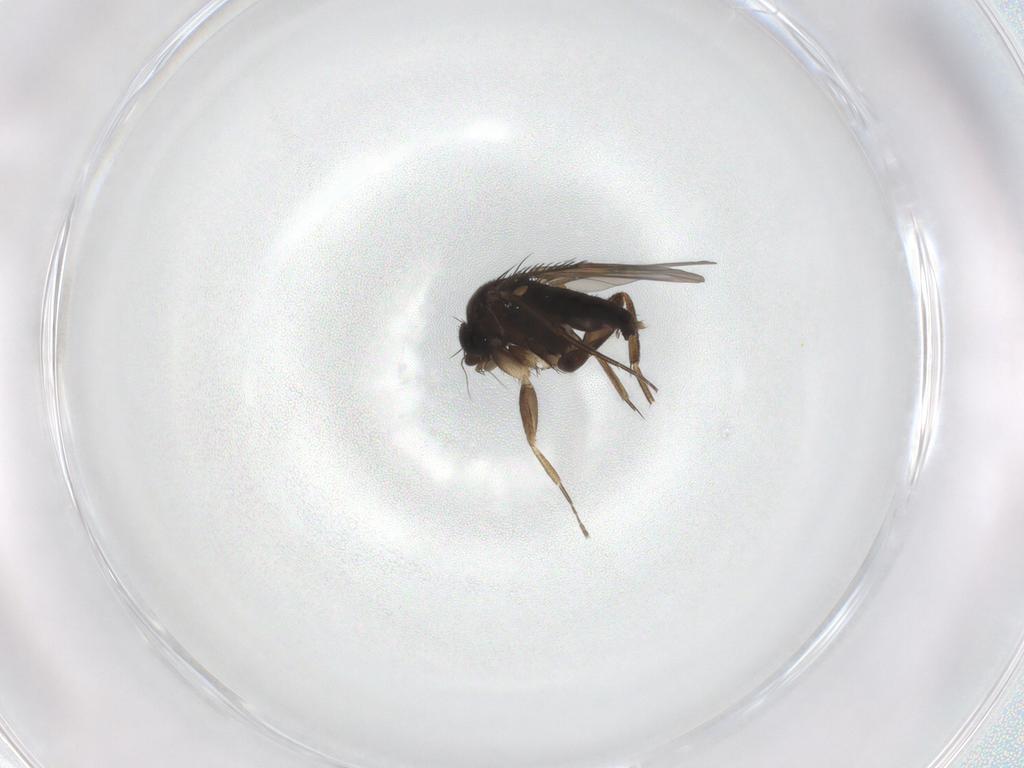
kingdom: Animalia
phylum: Arthropoda
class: Insecta
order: Diptera
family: Phoridae
